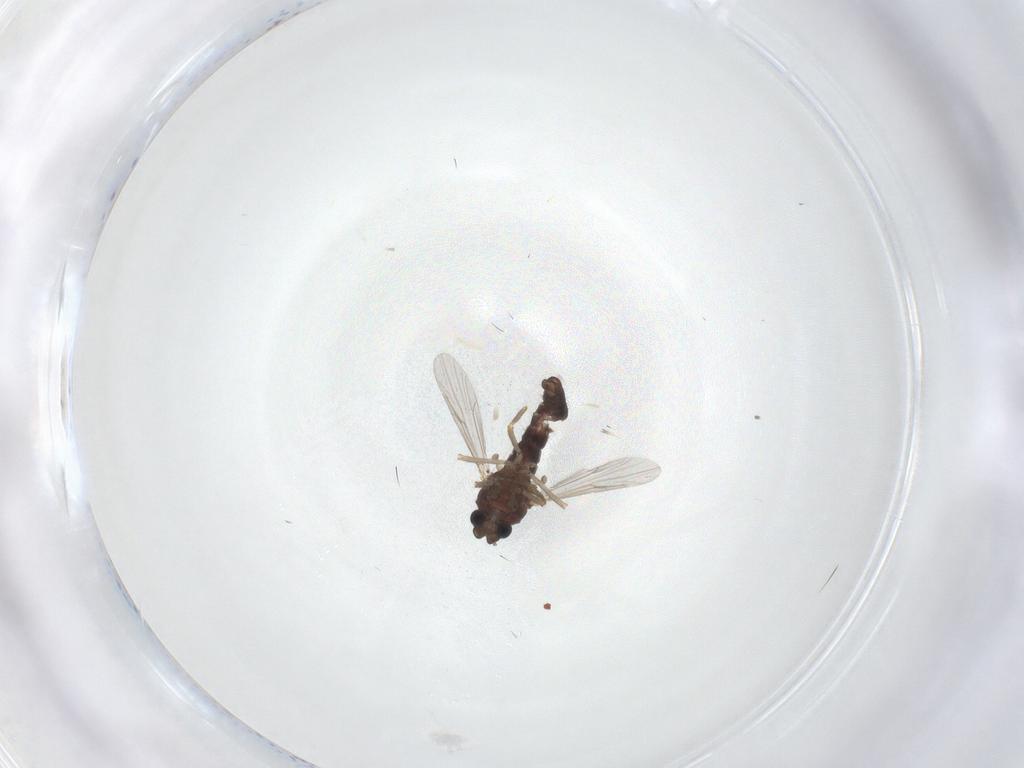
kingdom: Animalia
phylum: Arthropoda
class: Insecta
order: Diptera
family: Ceratopogonidae
